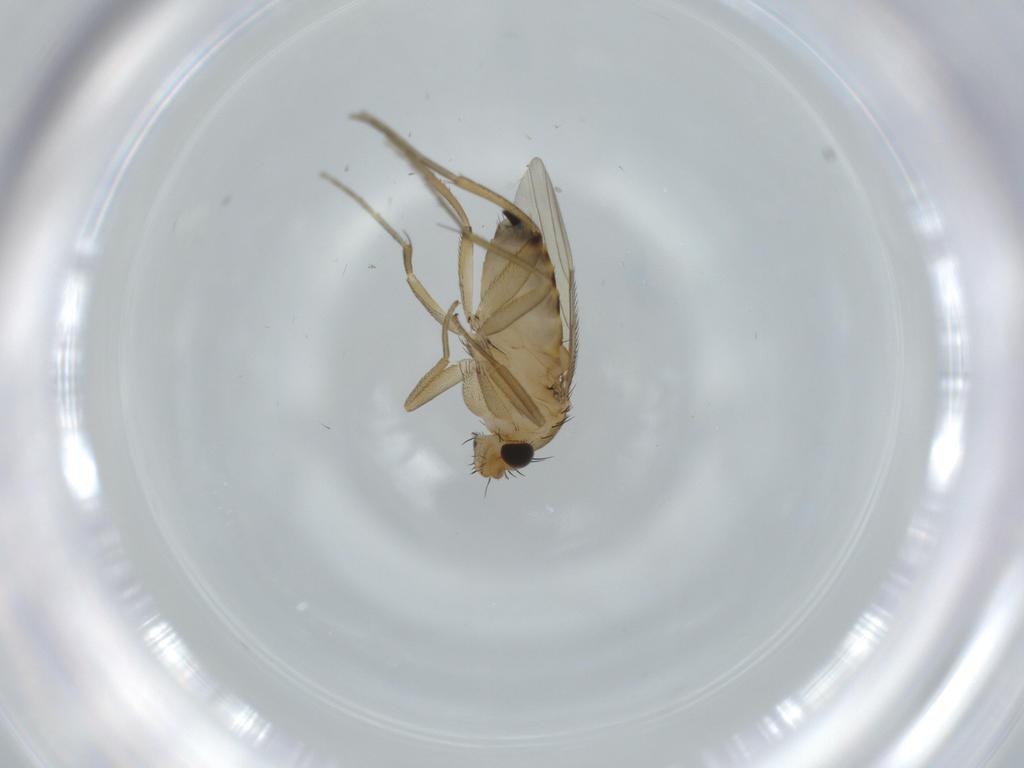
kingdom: Animalia
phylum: Arthropoda
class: Insecta
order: Diptera
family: Phoridae
